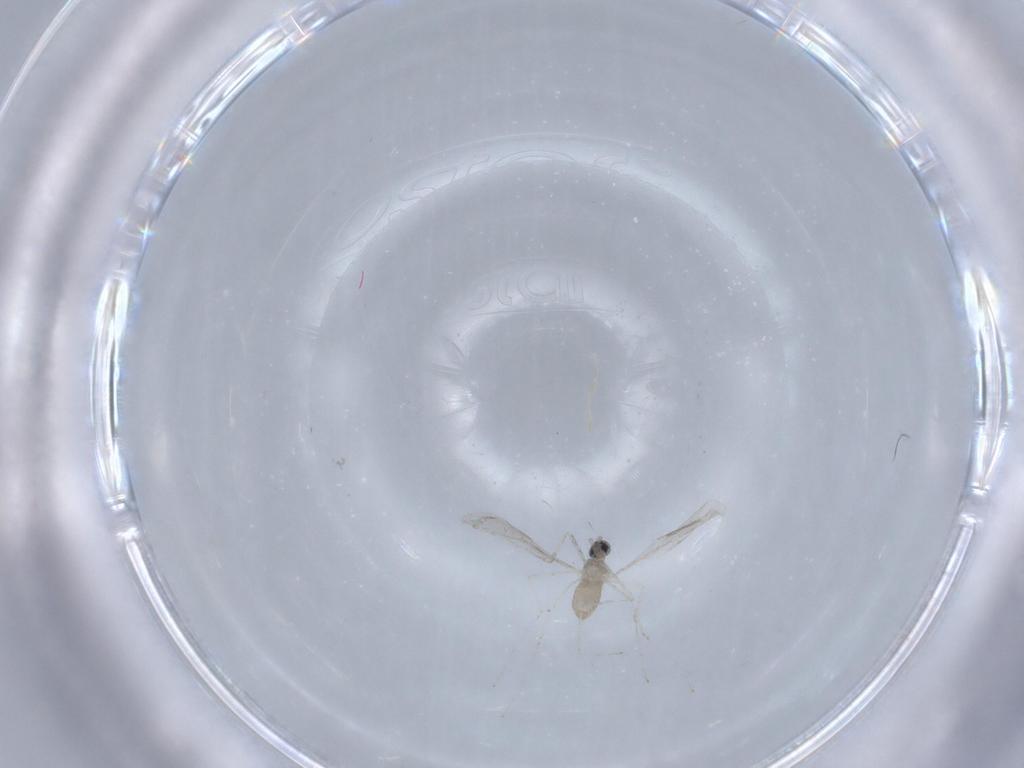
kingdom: Animalia
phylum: Arthropoda
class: Insecta
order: Diptera
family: Cecidomyiidae
